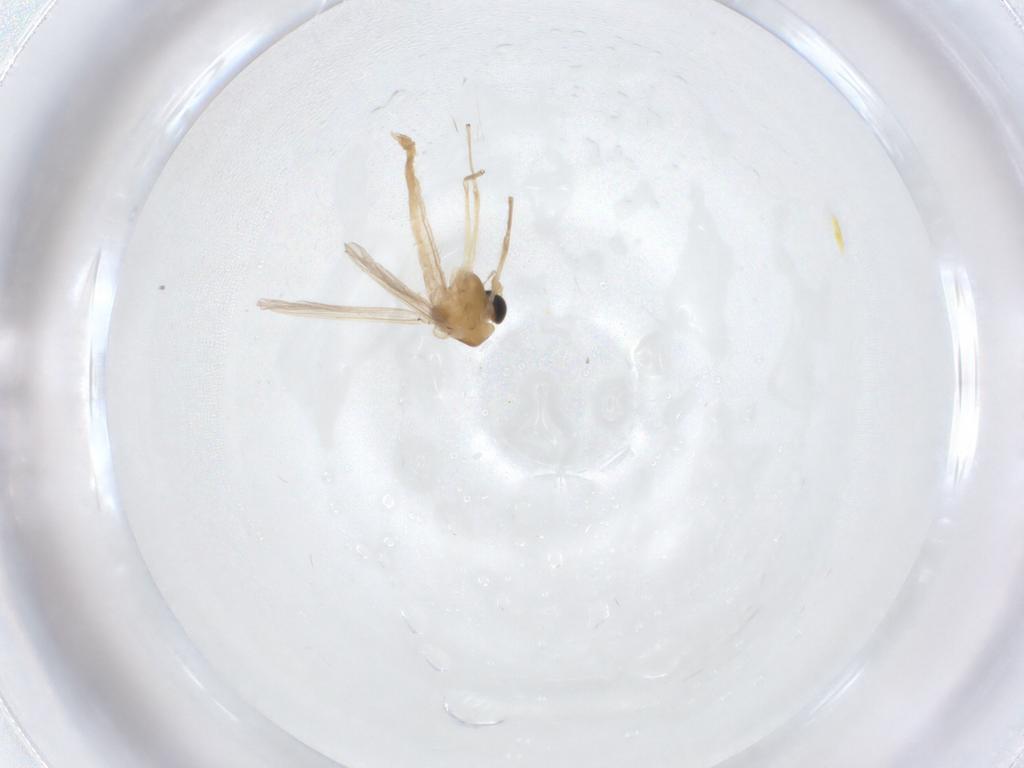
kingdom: Animalia
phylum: Arthropoda
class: Insecta
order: Diptera
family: Chironomidae
